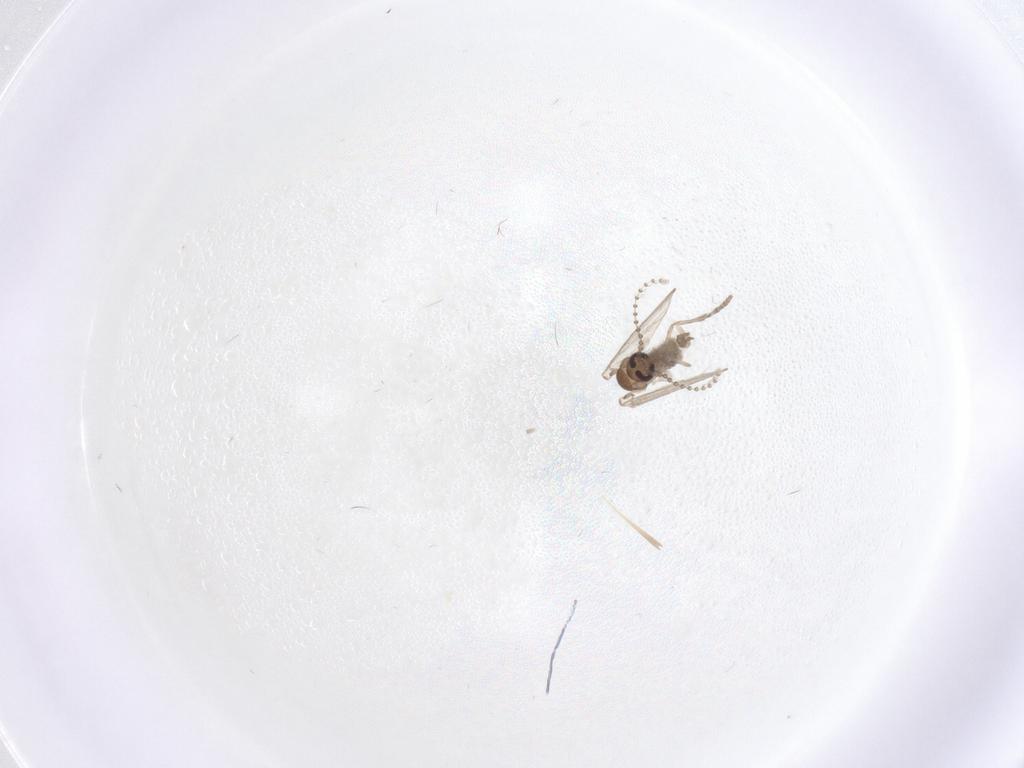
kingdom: Animalia
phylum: Arthropoda
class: Insecta
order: Diptera
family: Psychodidae
